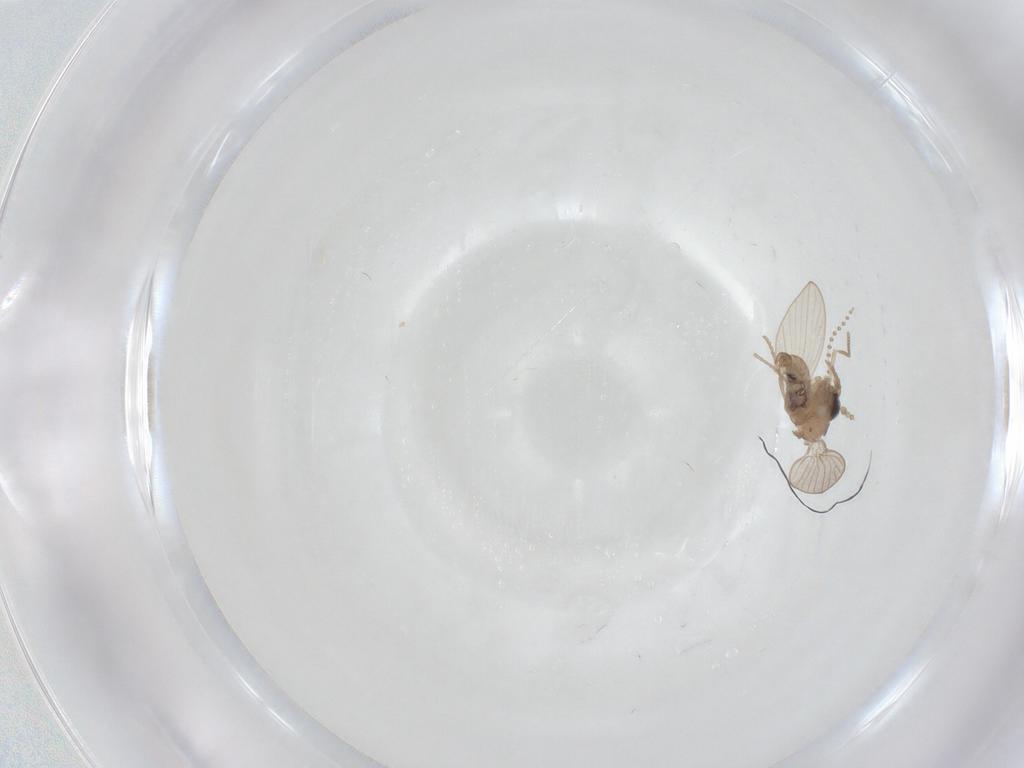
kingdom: Animalia
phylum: Arthropoda
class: Insecta
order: Diptera
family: Psychodidae
